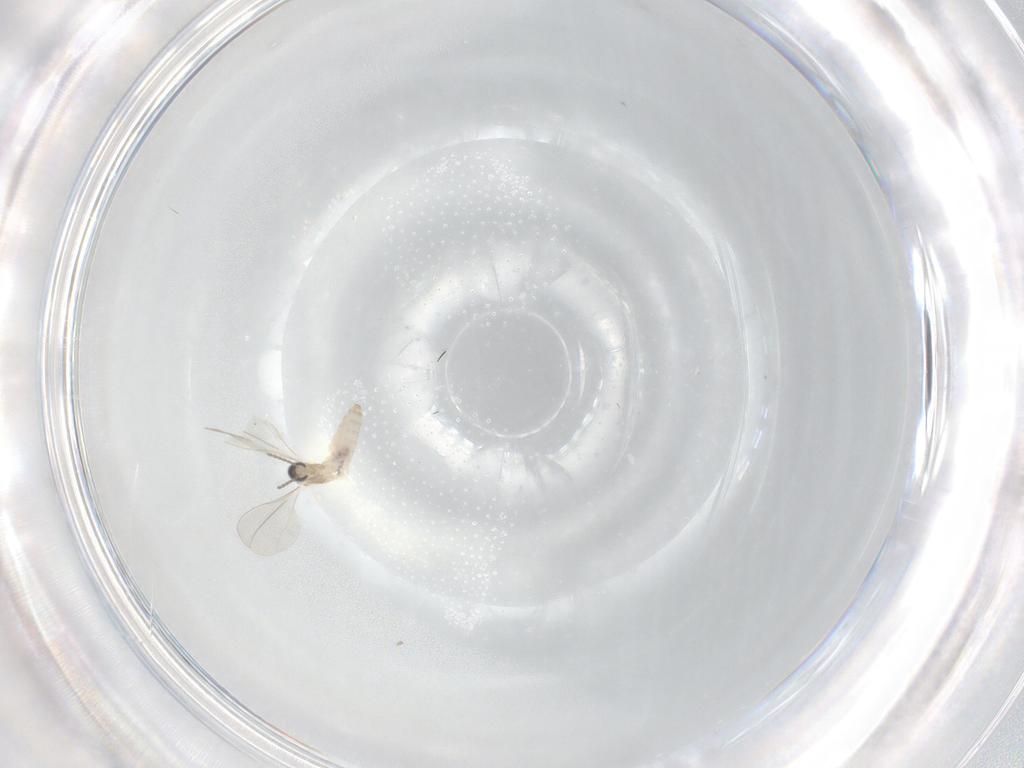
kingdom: Animalia
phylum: Arthropoda
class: Insecta
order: Diptera
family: Cecidomyiidae
